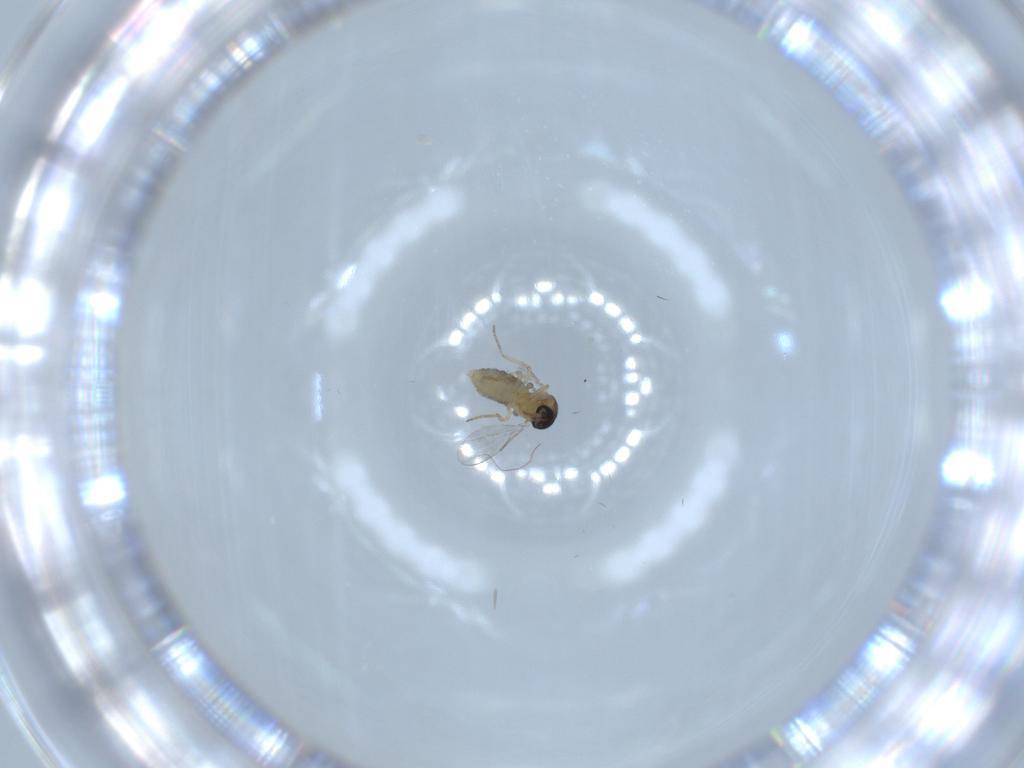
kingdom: Animalia
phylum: Arthropoda
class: Insecta
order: Diptera
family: Ceratopogonidae
